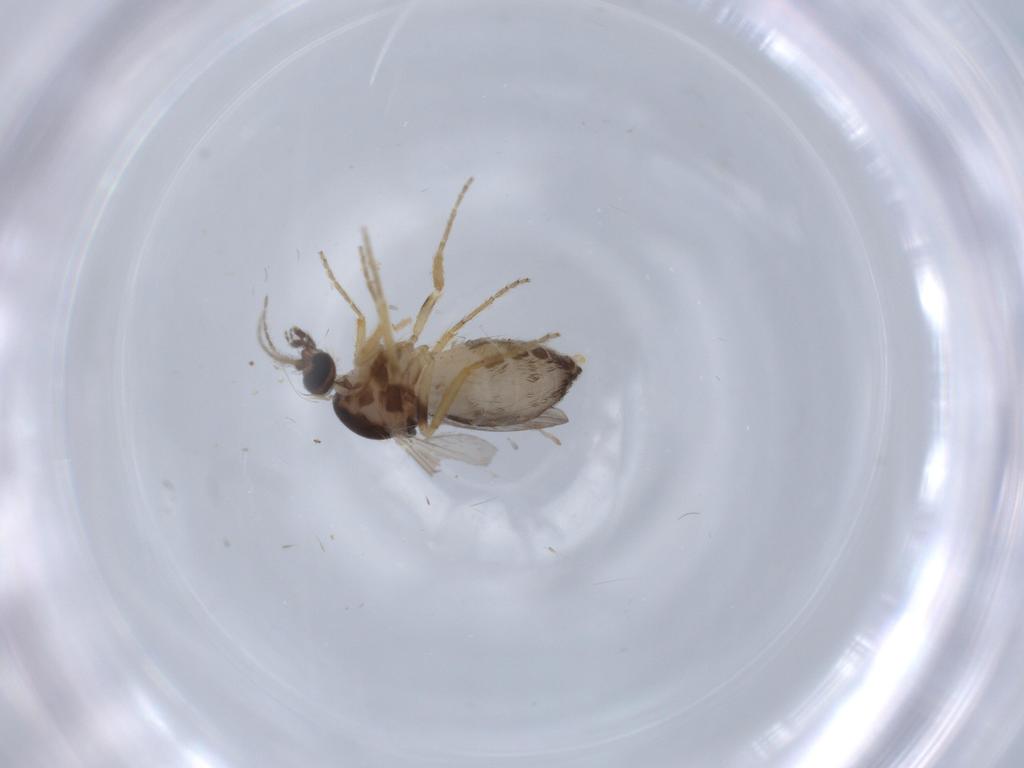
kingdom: Animalia
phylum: Arthropoda
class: Insecta
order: Diptera
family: Ceratopogonidae
